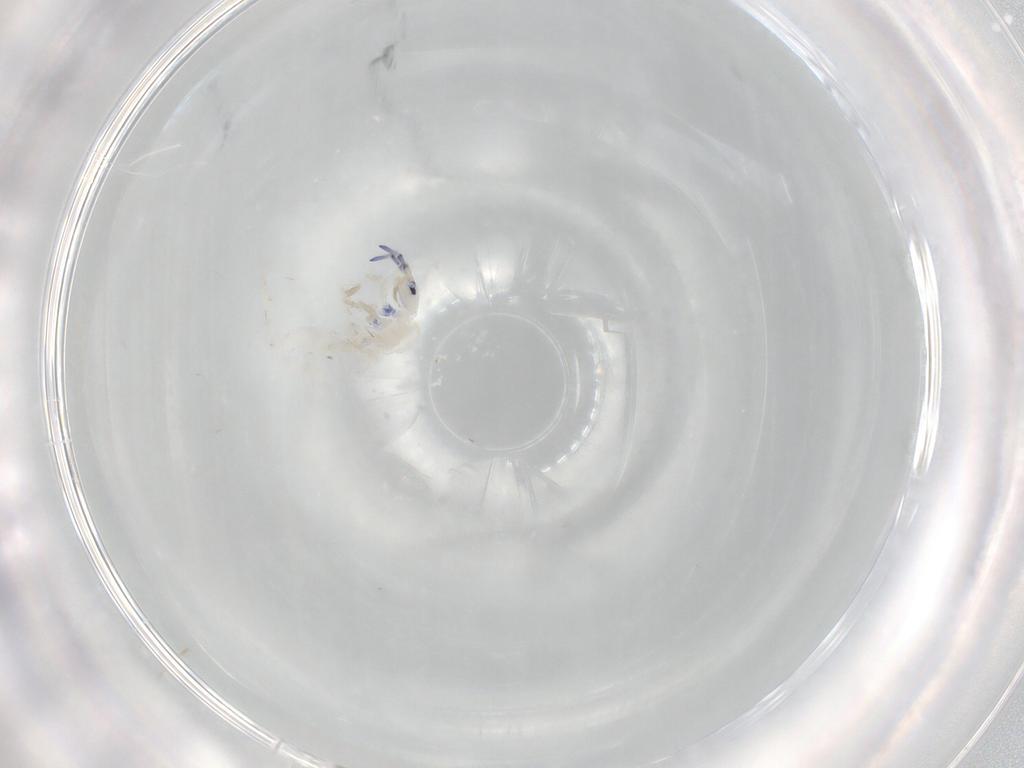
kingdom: Animalia
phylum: Arthropoda
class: Collembola
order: Entomobryomorpha
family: Entomobryidae
